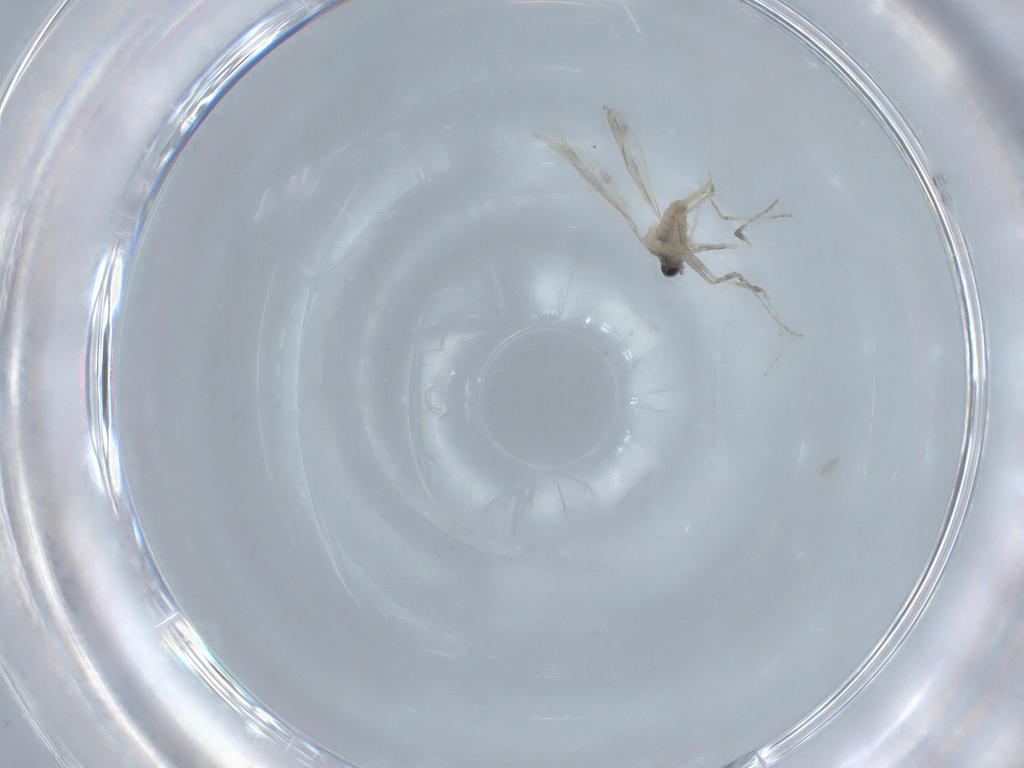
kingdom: Animalia
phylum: Arthropoda
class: Insecta
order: Diptera
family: Cecidomyiidae
